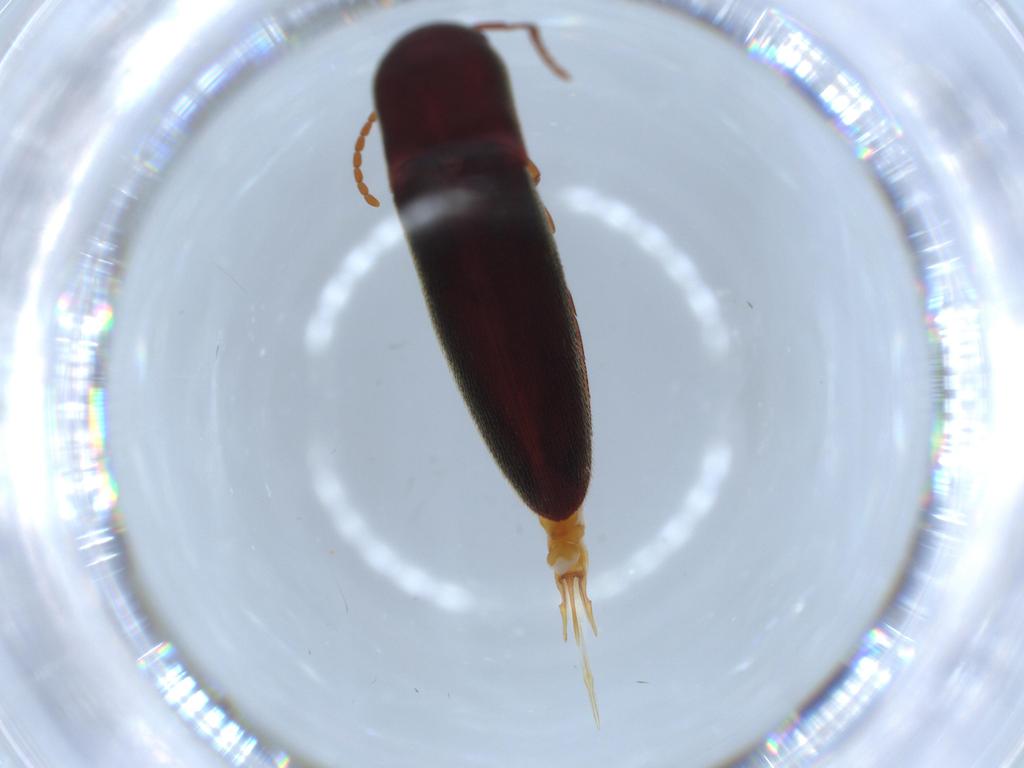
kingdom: Animalia
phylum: Arthropoda
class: Insecta
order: Coleoptera
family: Eucnemidae
